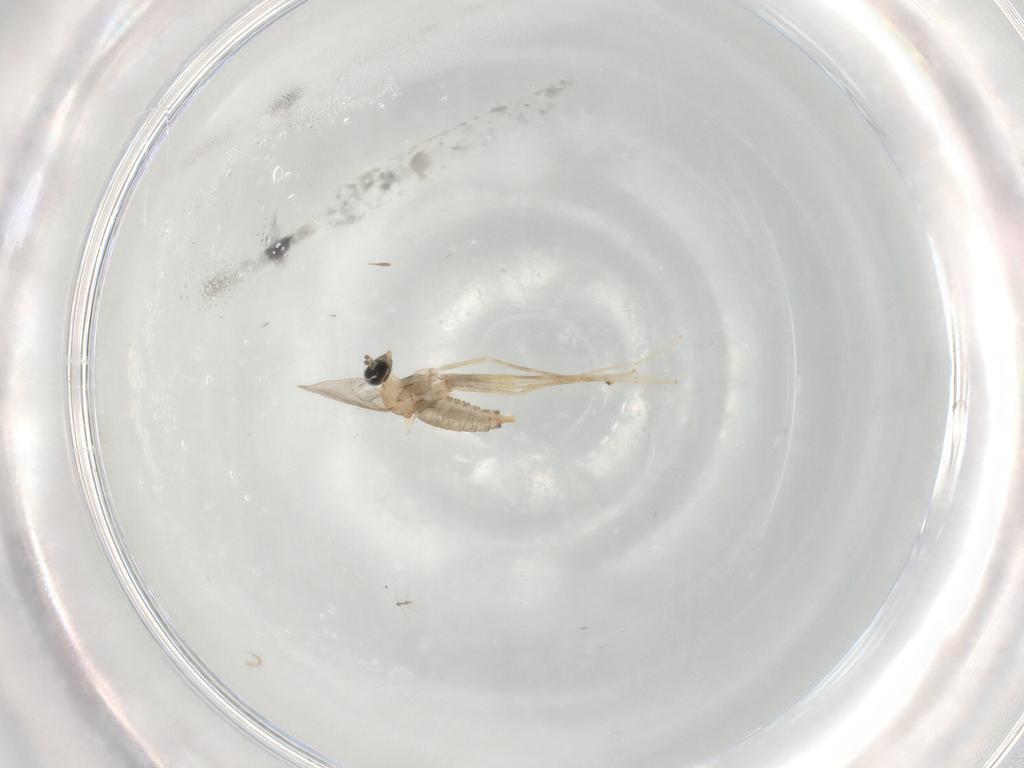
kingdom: Animalia
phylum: Arthropoda
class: Insecta
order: Diptera
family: Cecidomyiidae
